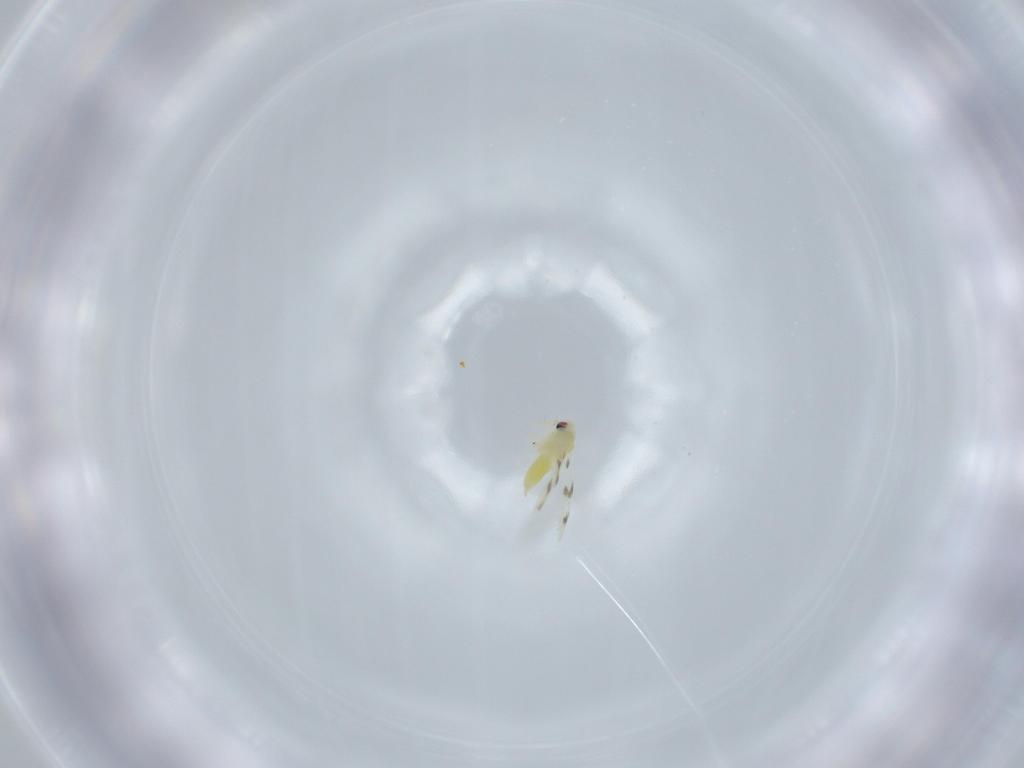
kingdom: Animalia
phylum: Arthropoda
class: Insecta
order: Hemiptera
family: Aleyrodidae
